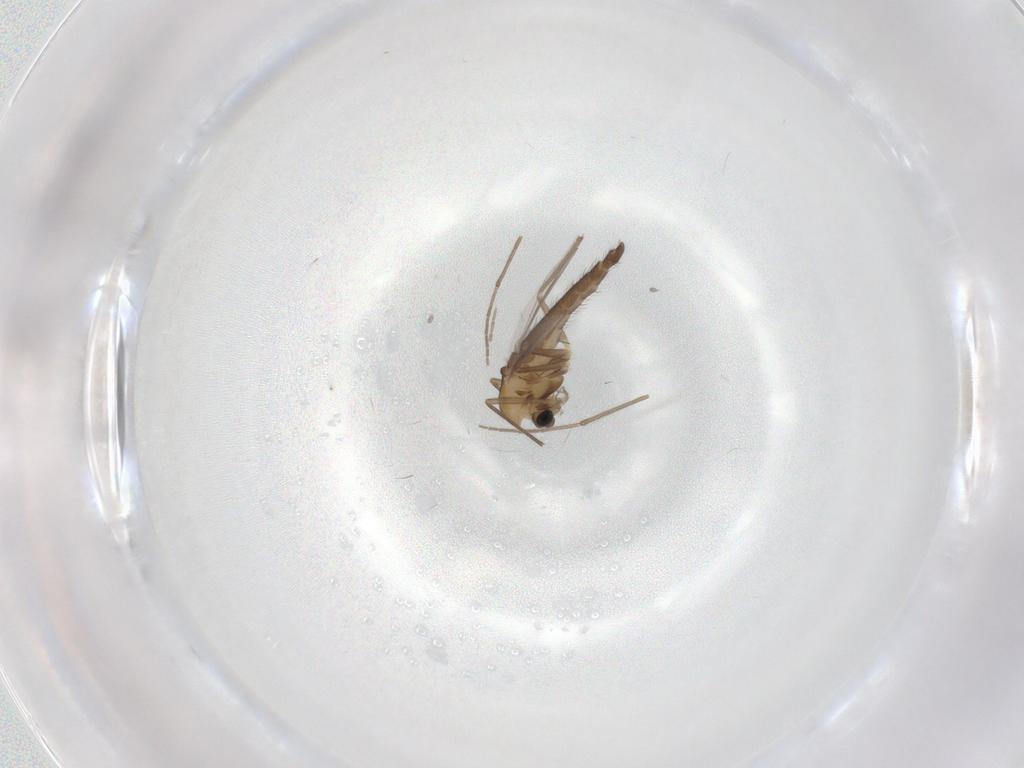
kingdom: Animalia
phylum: Arthropoda
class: Insecta
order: Diptera
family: Chironomidae
